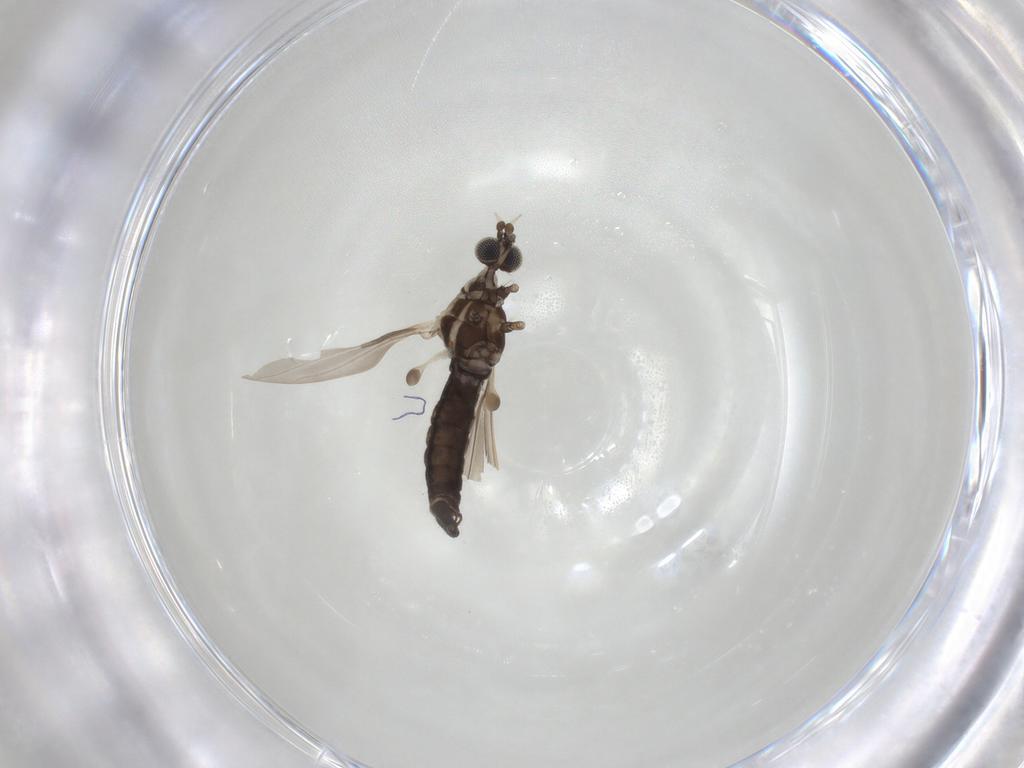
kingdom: Animalia
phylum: Arthropoda
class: Insecta
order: Diptera
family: Limoniidae
